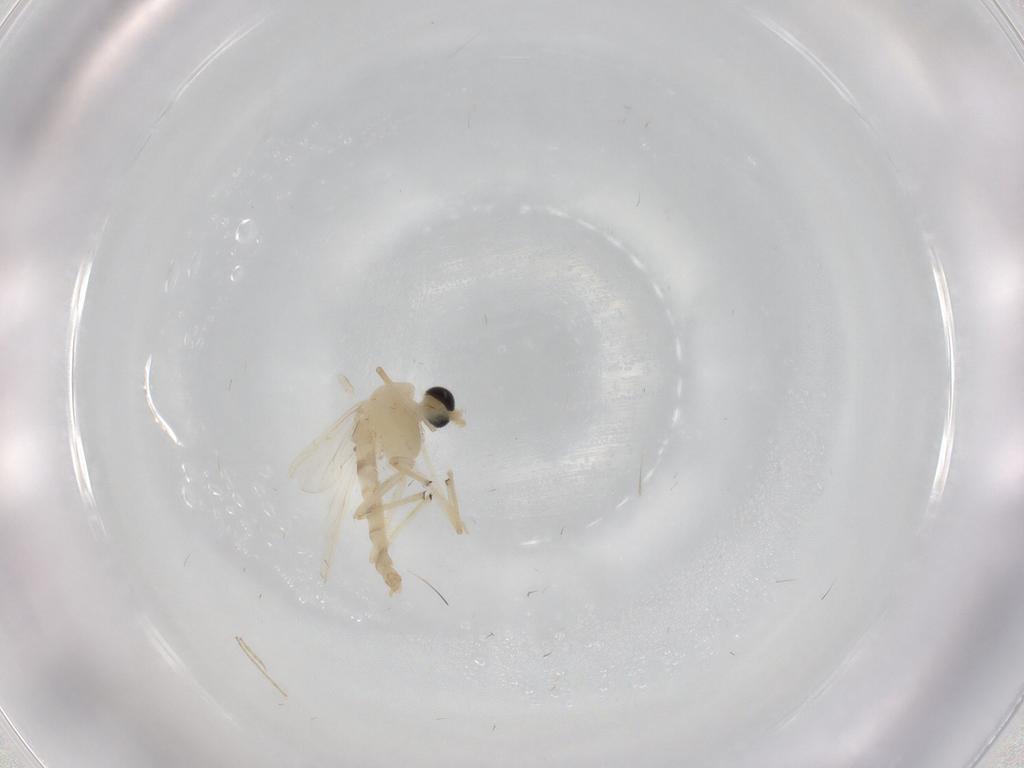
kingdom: Animalia
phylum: Arthropoda
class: Insecta
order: Diptera
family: Chironomidae
